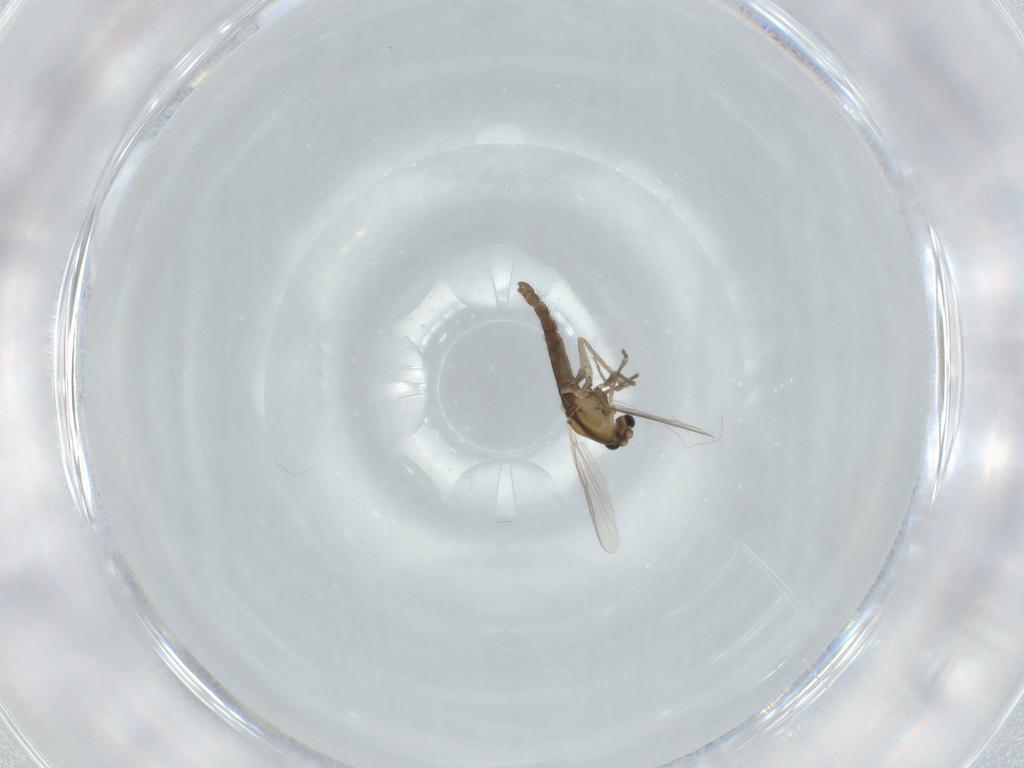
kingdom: Animalia
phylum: Arthropoda
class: Insecta
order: Diptera
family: Chironomidae
